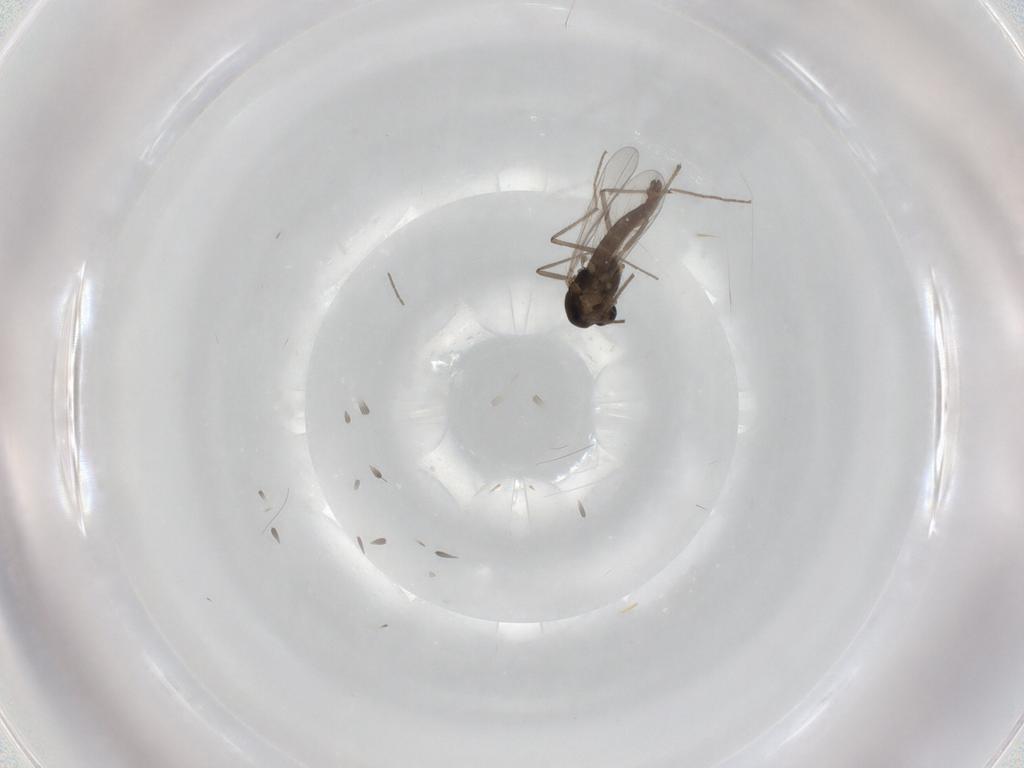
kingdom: Animalia
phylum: Arthropoda
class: Insecta
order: Diptera
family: Chironomidae
